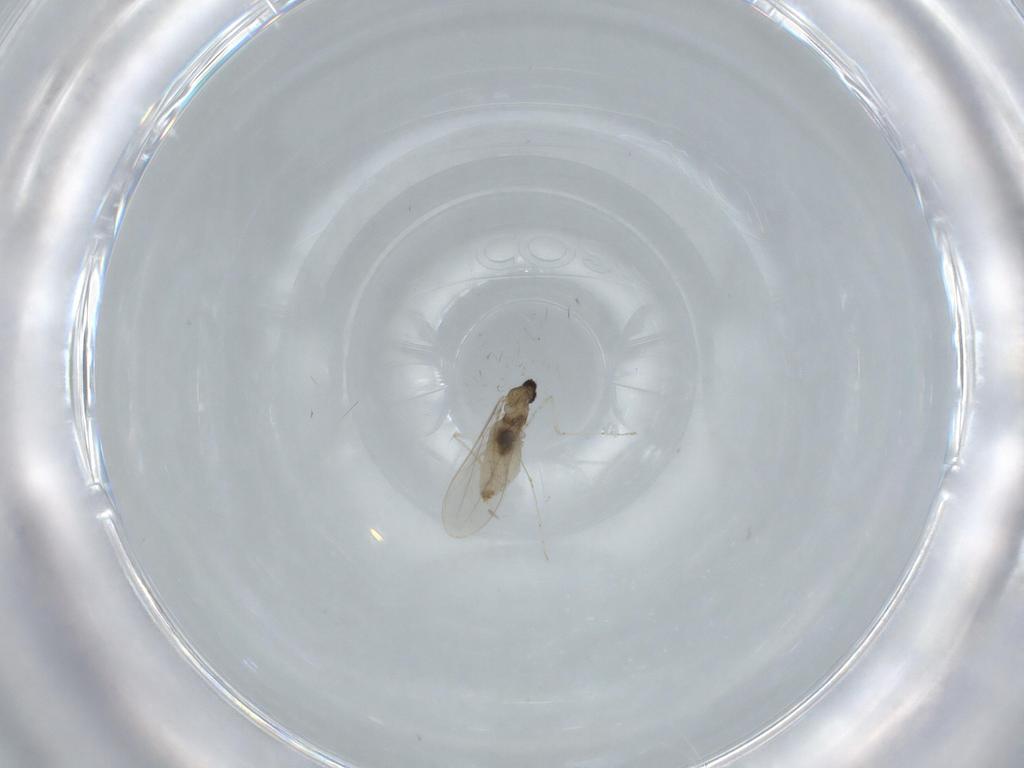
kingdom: Animalia
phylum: Arthropoda
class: Insecta
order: Diptera
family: Cecidomyiidae
